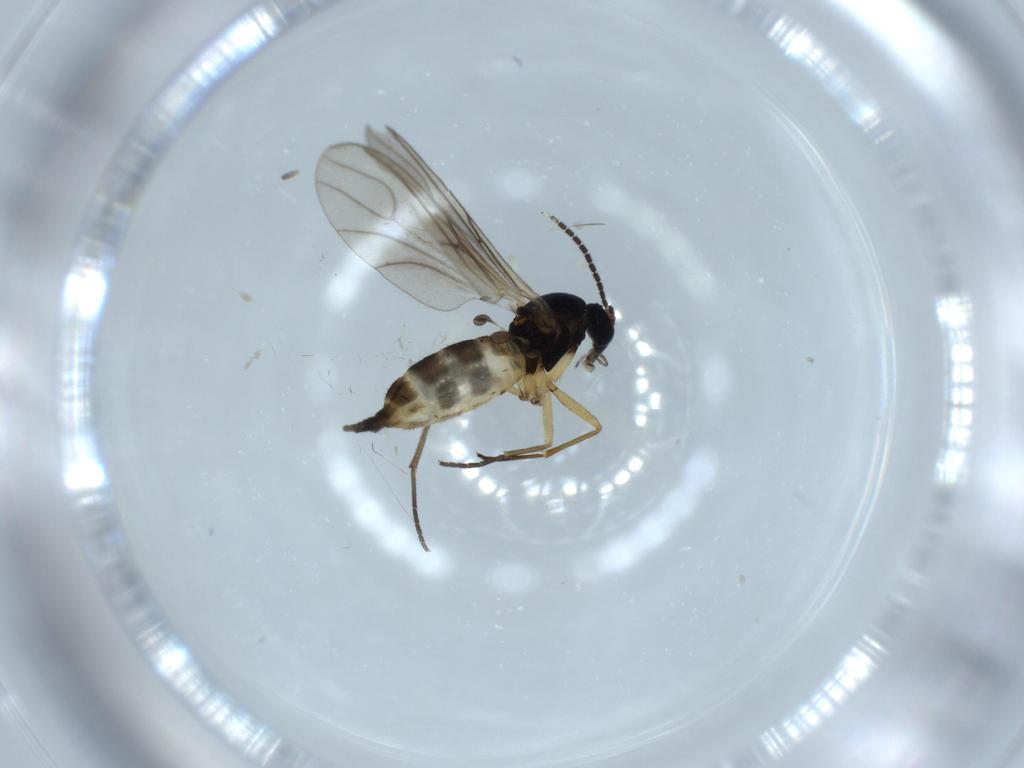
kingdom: Animalia
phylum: Arthropoda
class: Insecta
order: Diptera
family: Sciaridae
